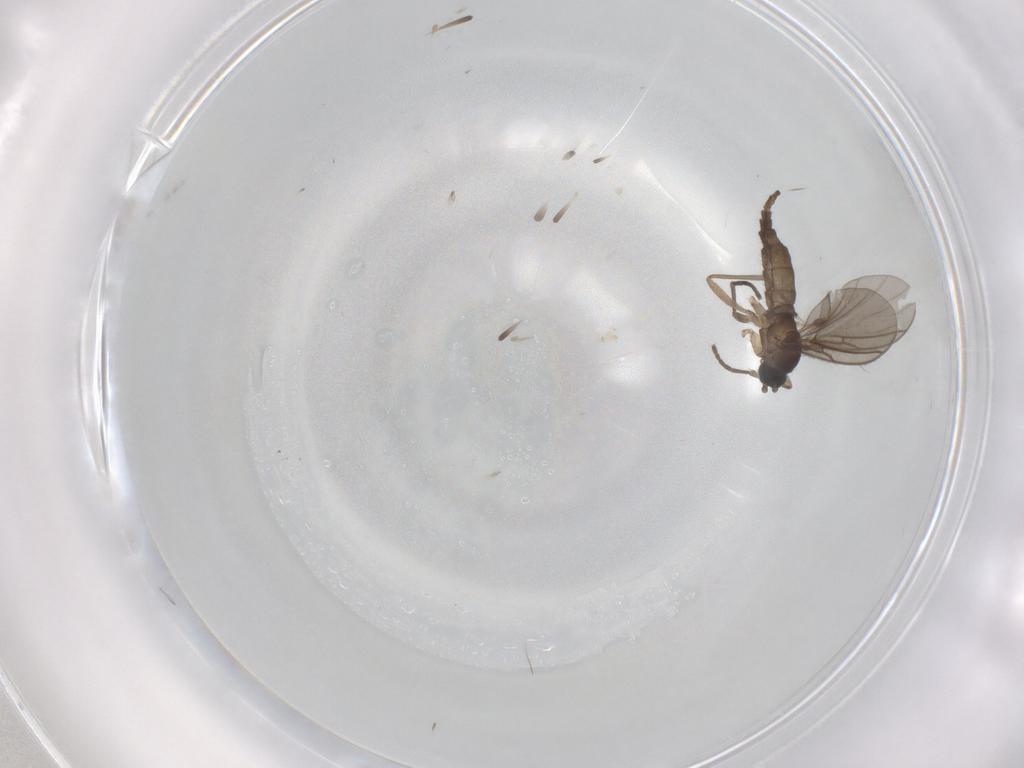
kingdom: Animalia
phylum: Arthropoda
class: Insecta
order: Diptera
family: Sciaridae
